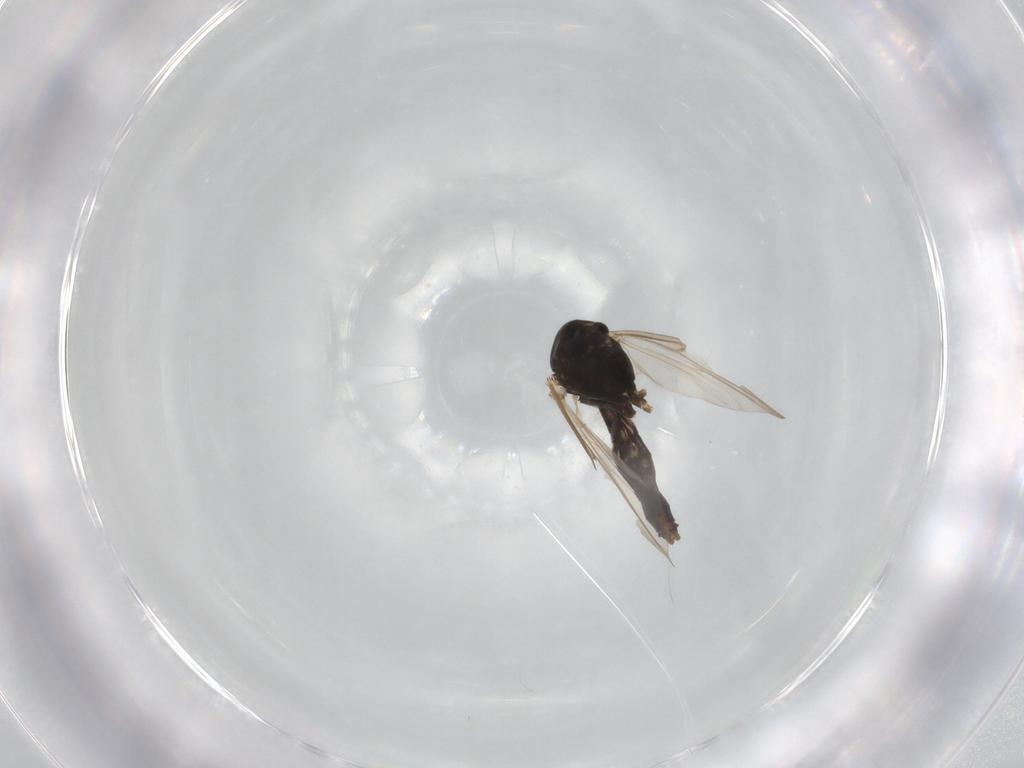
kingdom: Animalia
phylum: Arthropoda
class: Insecta
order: Diptera
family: Chironomidae
